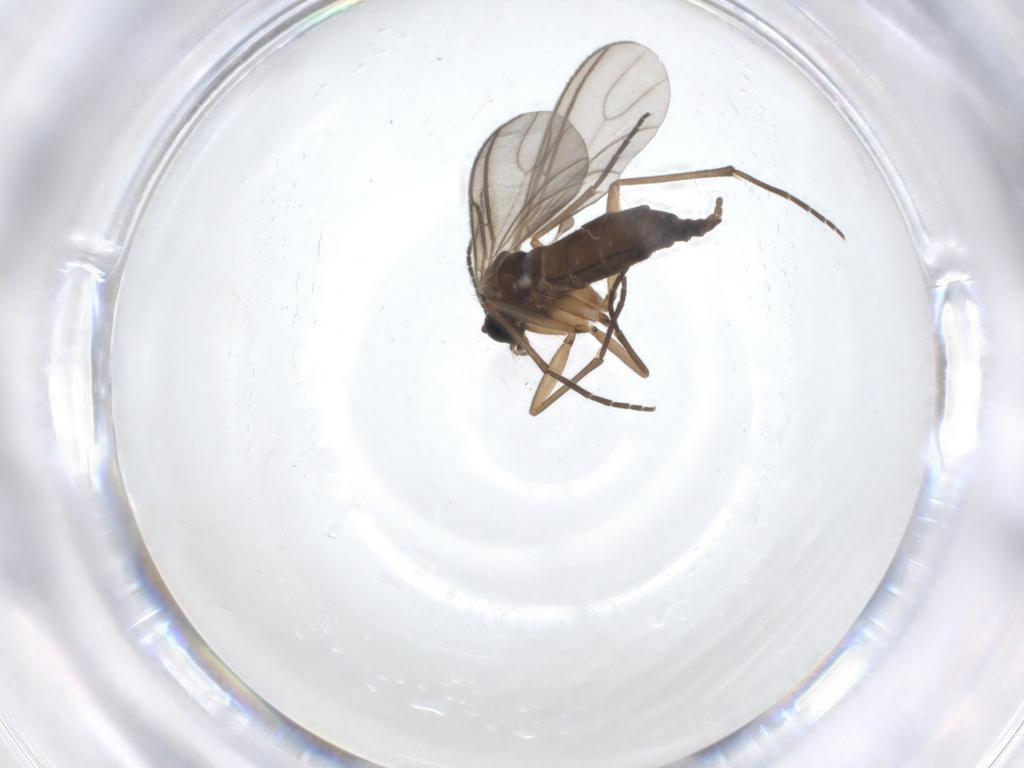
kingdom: Animalia
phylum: Arthropoda
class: Insecta
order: Diptera
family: Sciaridae
